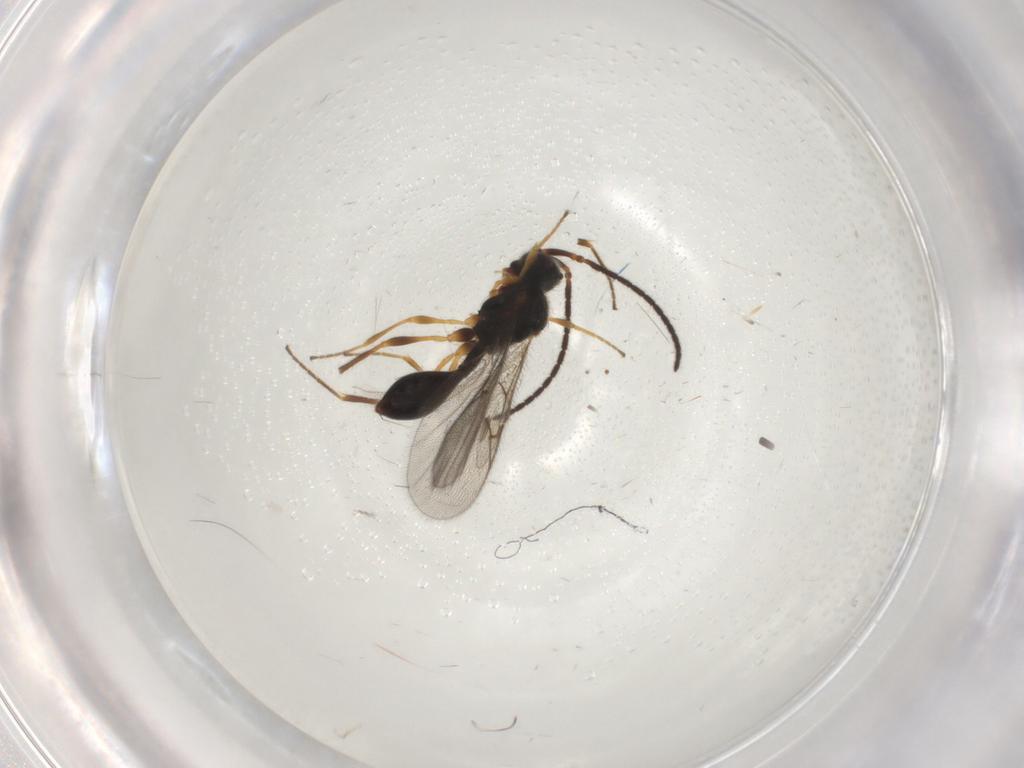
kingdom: Animalia
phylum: Arthropoda
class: Insecta
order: Hymenoptera
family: Diapriidae
